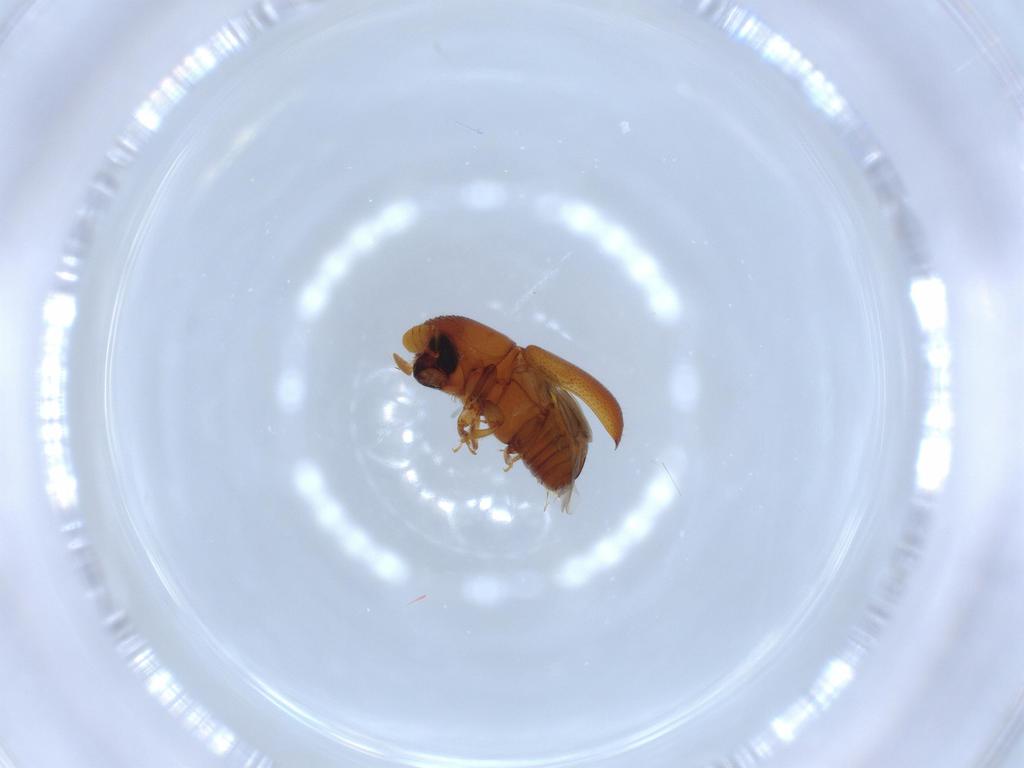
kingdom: Animalia
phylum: Arthropoda
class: Insecta
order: Coleoptera
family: Curculionidae
